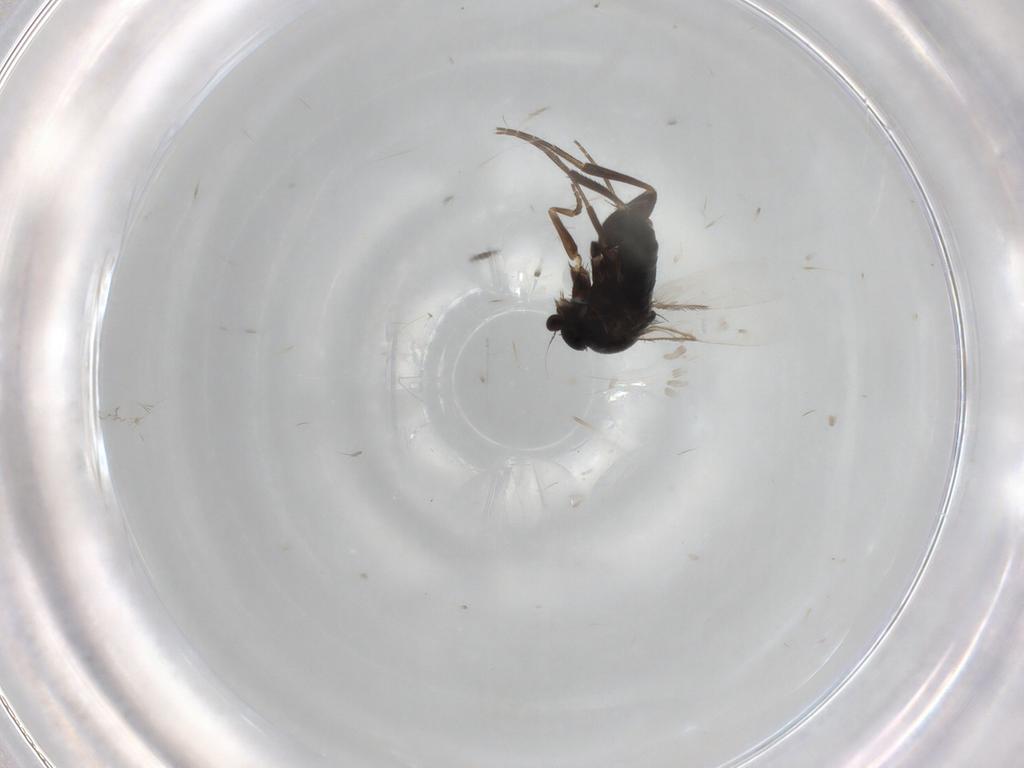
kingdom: Animalia
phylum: Arthropoda
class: Insecta
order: Diptera
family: Phoridae
